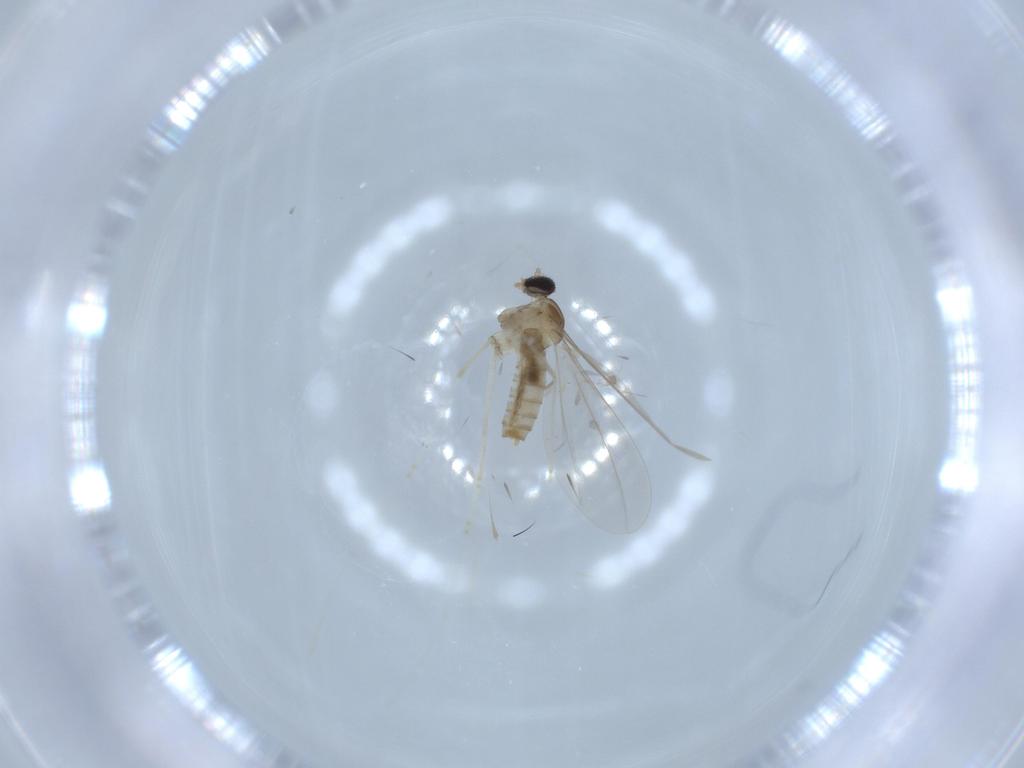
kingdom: Animalia
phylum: Arthropoda
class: Insecta
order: Diptera
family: Cecidomyiidae
